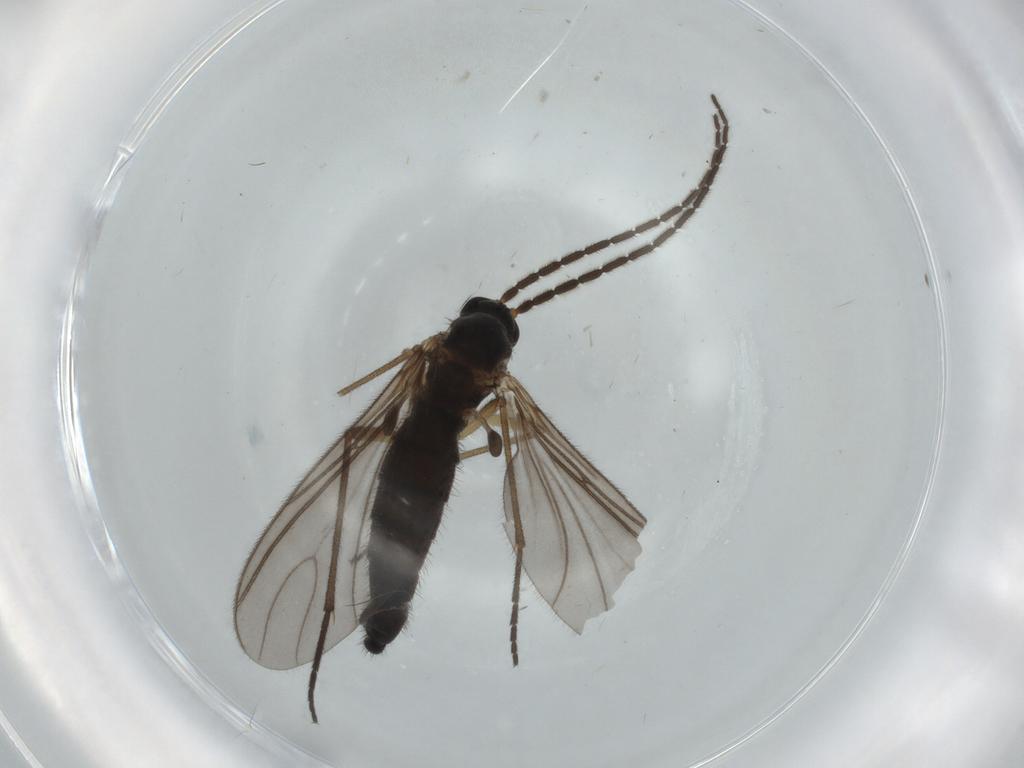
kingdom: Animalia
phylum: Arthropoda
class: Insecta
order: Diptera
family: Sciaridae
